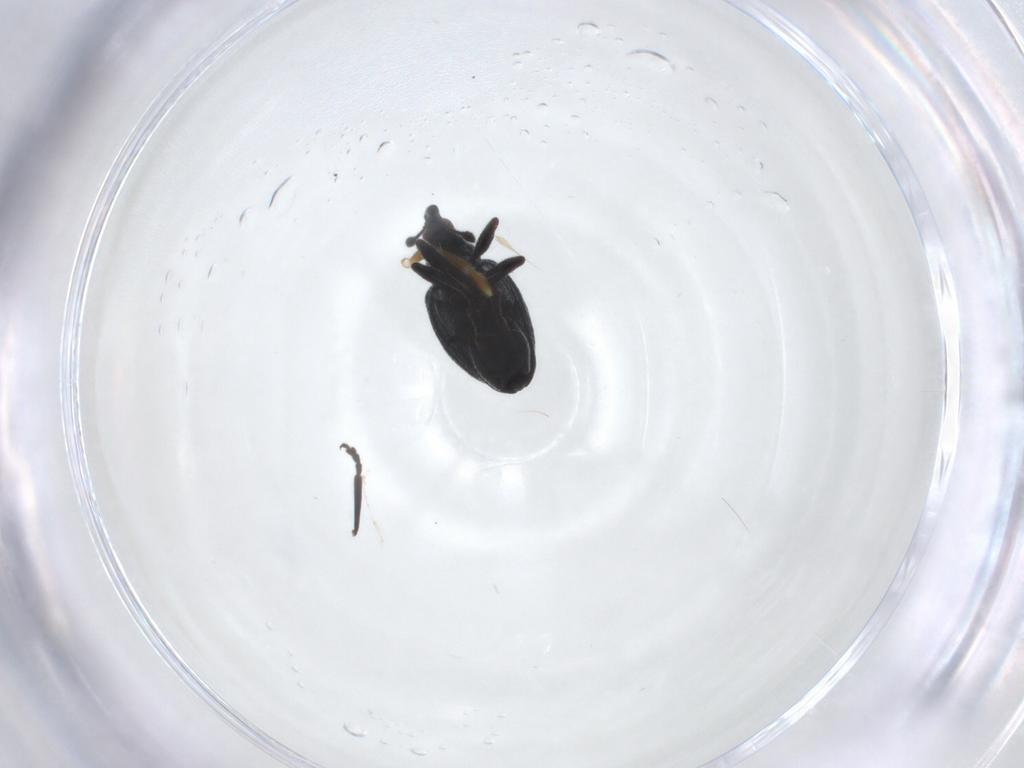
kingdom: Animalia
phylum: Arthropoda
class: Insecta
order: Coleoptera
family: Brentidae
